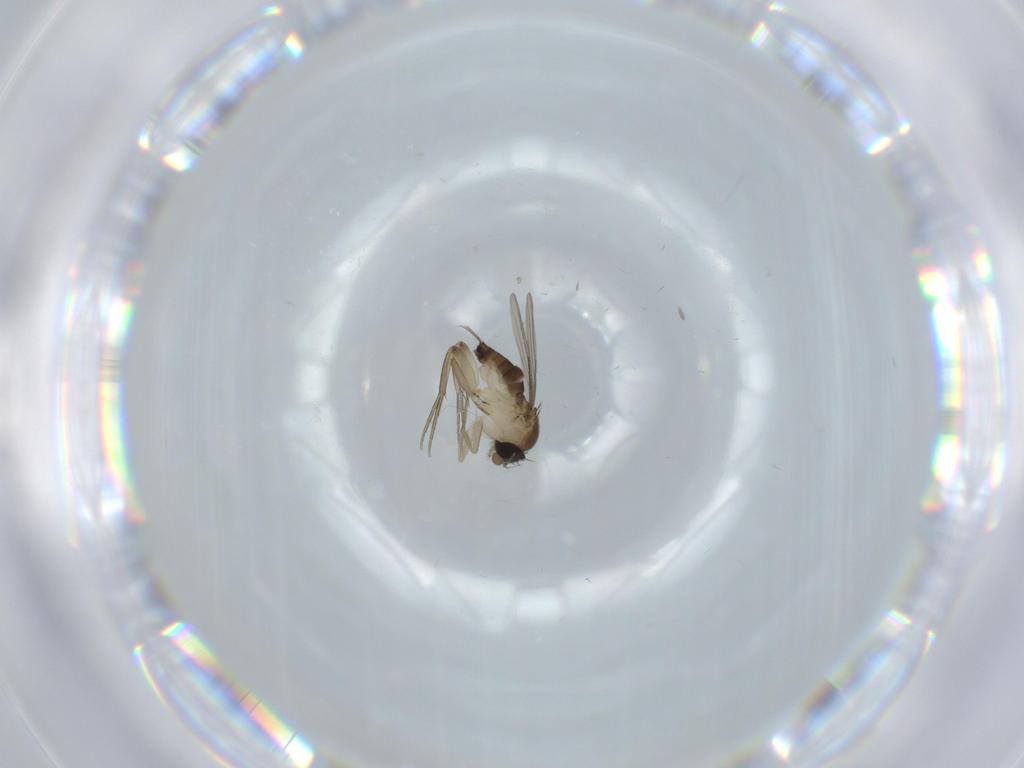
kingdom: Animalia
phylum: Arthropoda
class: Insecta
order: Diptera
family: Phoridae
